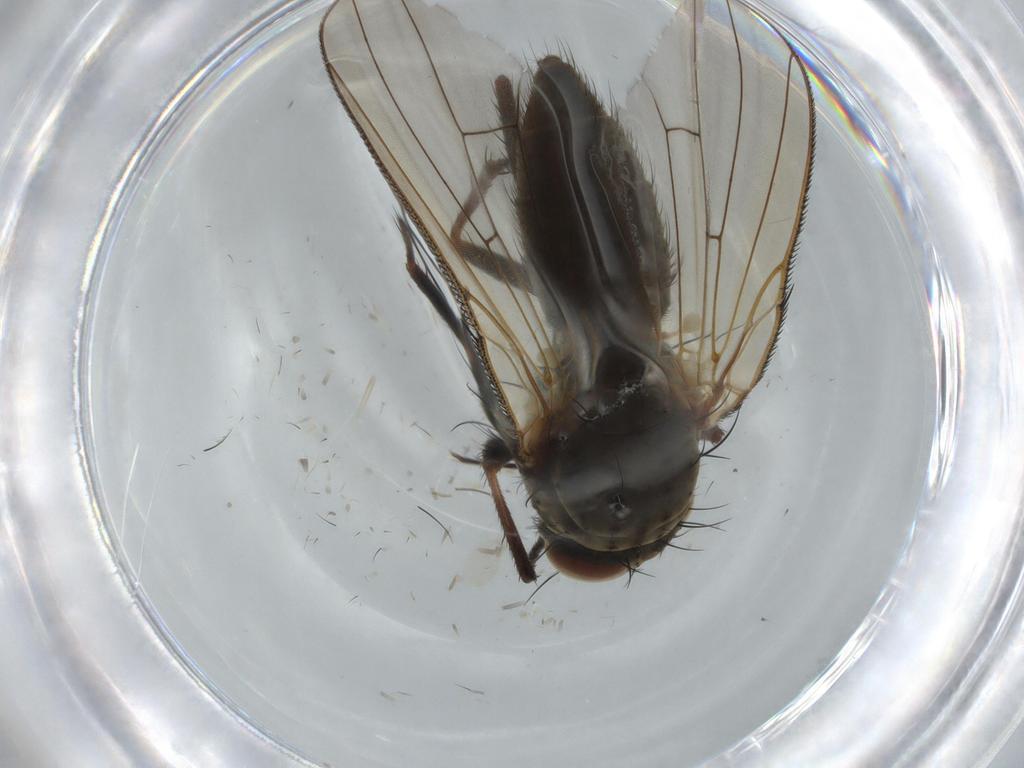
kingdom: Animalia
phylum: Arthropoda
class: Insecta
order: Diptera
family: Anthomyiidae
